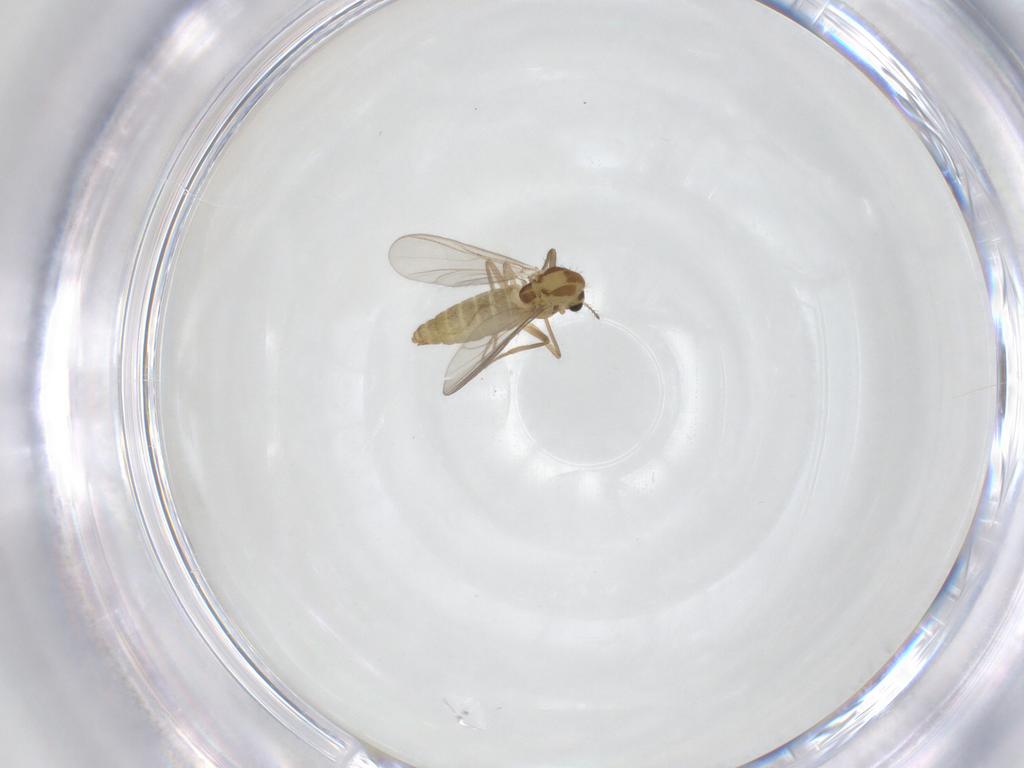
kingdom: Animalia
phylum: Arthropoda
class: Insecta
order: Diptera
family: Chironomidae
